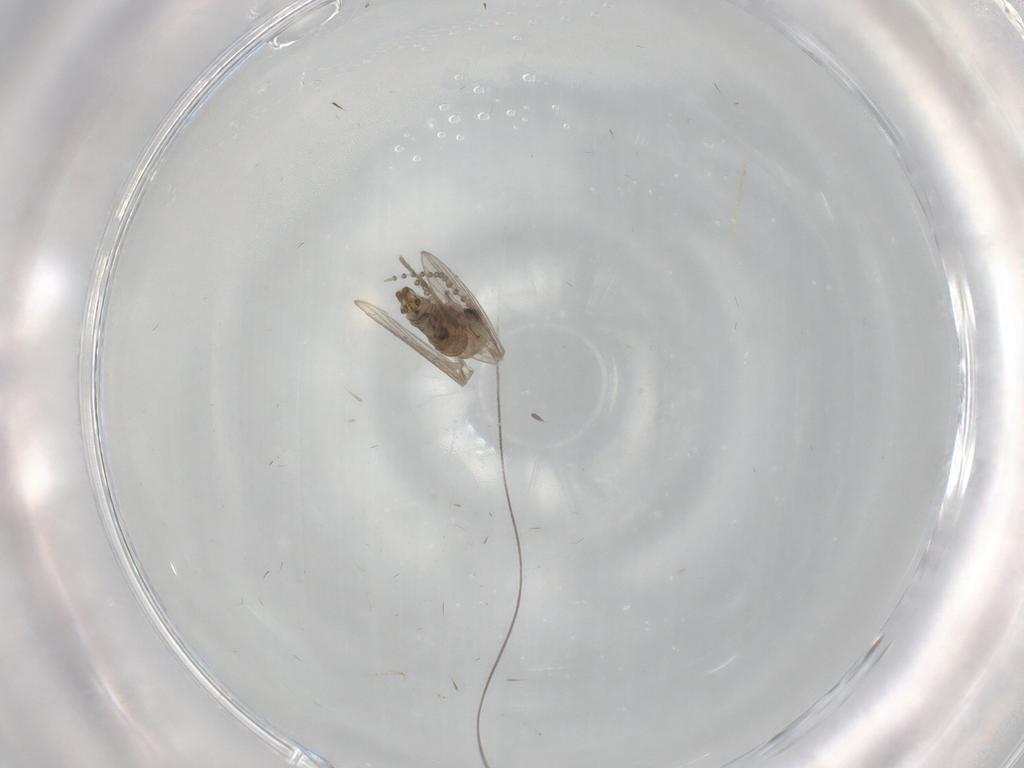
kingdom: Animalia
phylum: Arthropoda
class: Insecta
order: Diptera
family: Psychodidae
